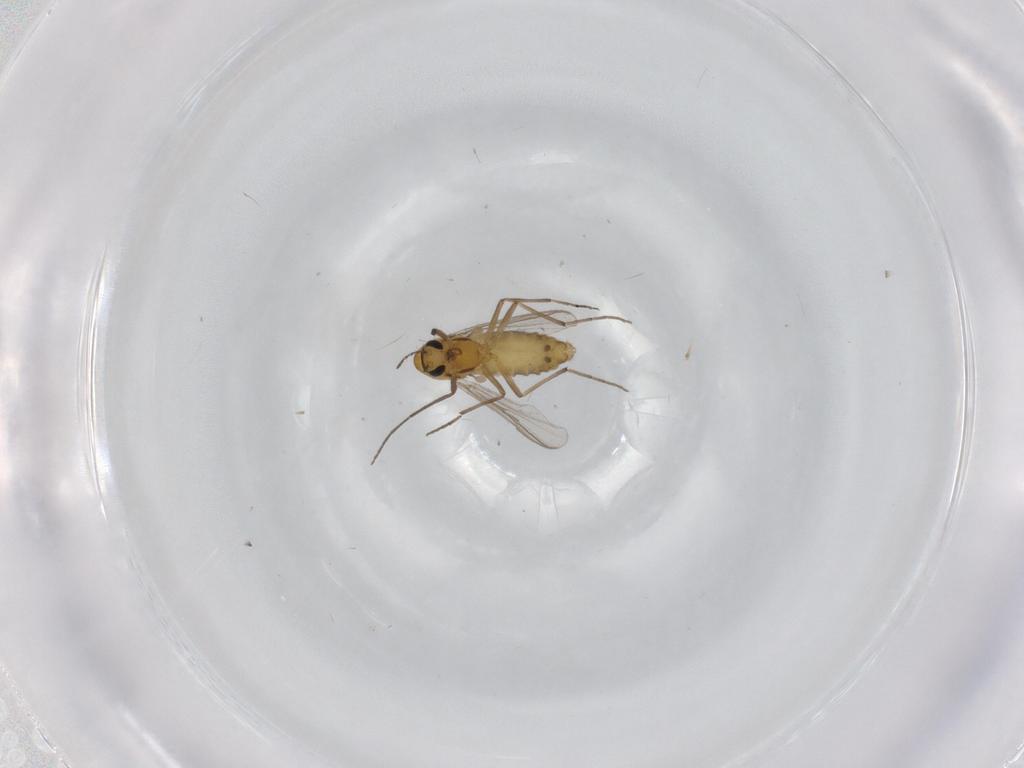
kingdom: Animalia
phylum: Arthropoda
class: Insecta
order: Diptera
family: Chironomidae
